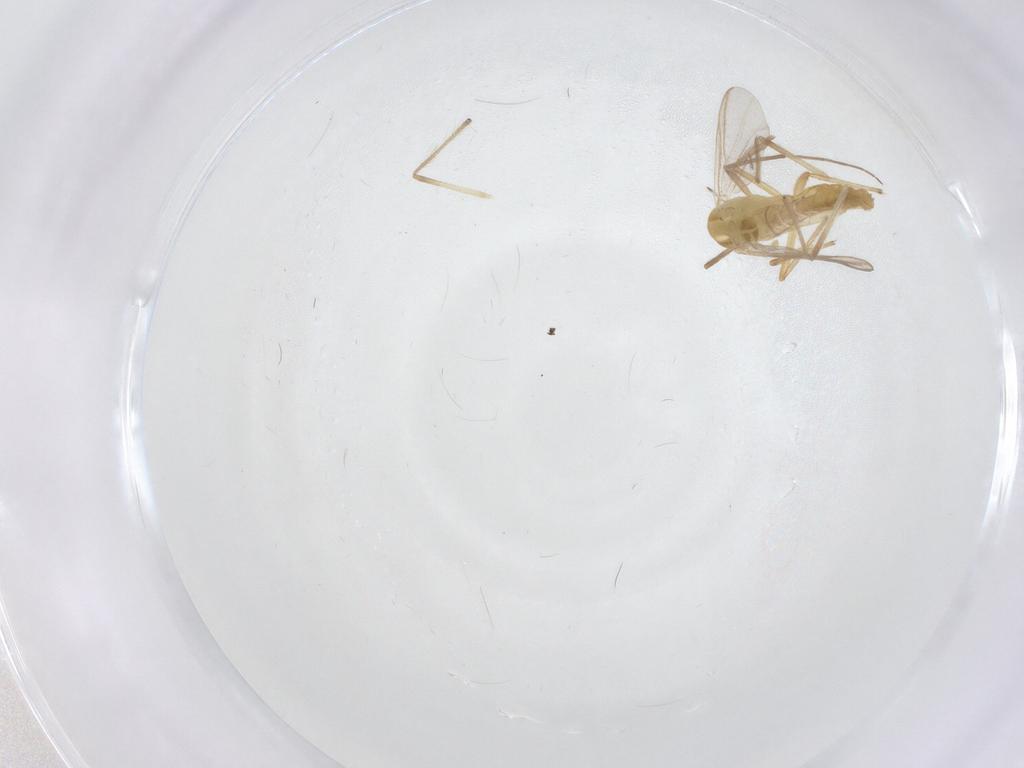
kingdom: Animalia
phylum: Arthropoda
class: Insecta
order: Diptera
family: Chironomidae
